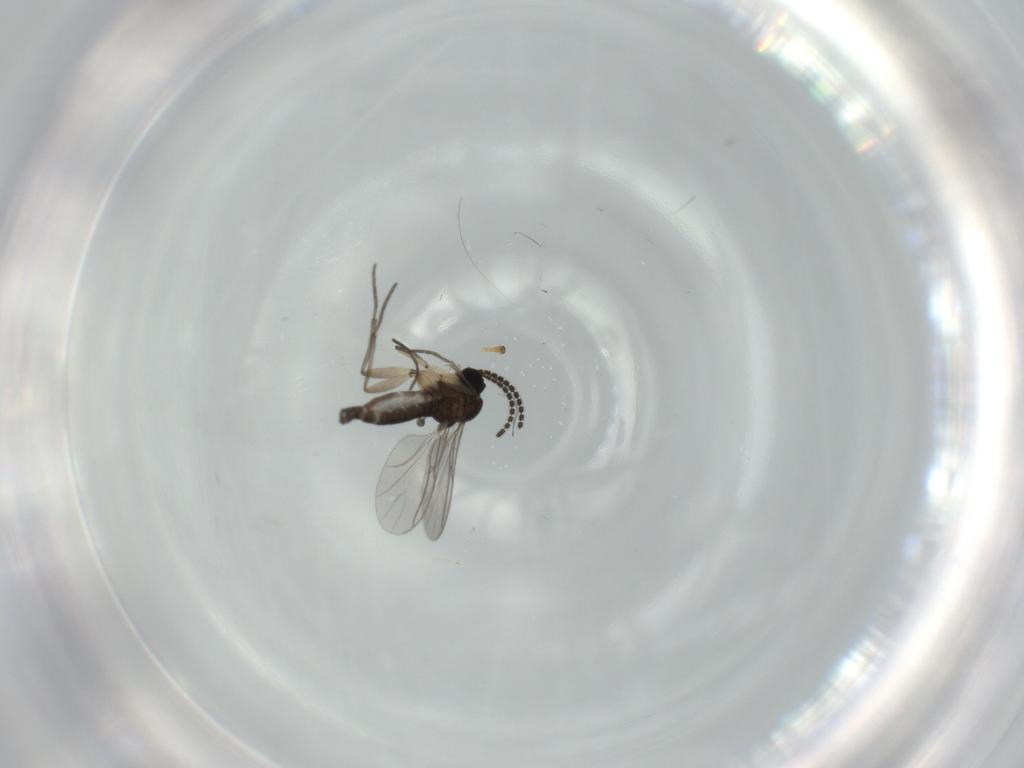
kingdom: Animalia
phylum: Arthropoda
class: Insecta
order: Diptera
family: Sciaridae
